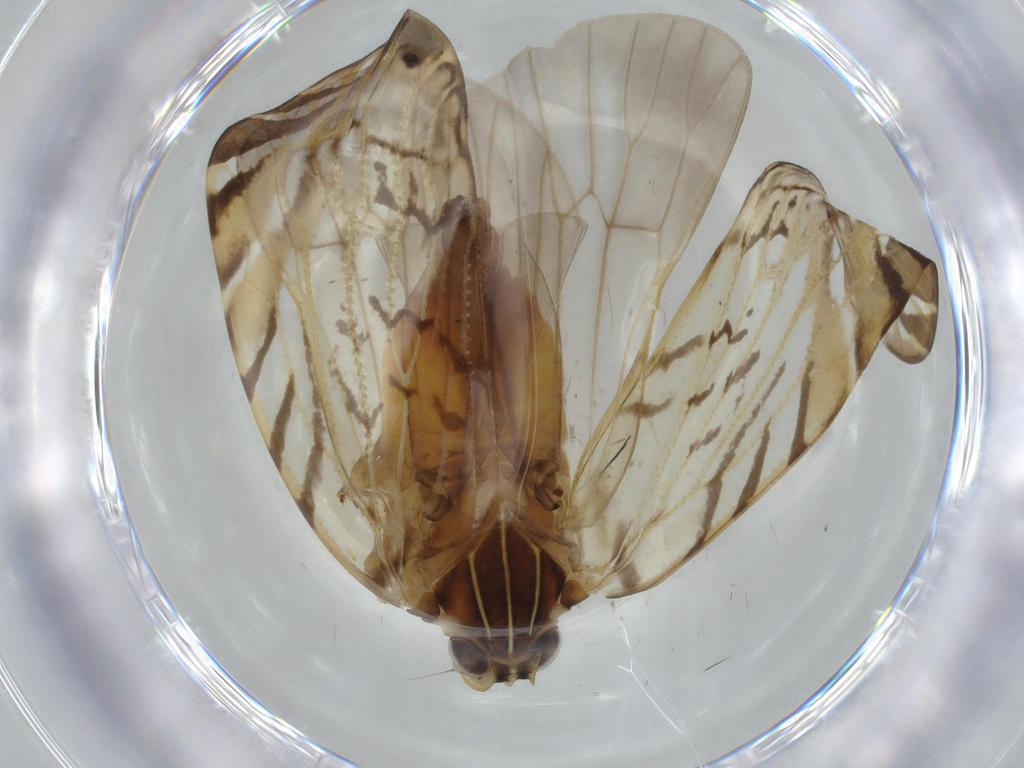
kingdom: Animalia
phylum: Arthropoda
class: Insecta
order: Hemiptera
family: Cixiidae
